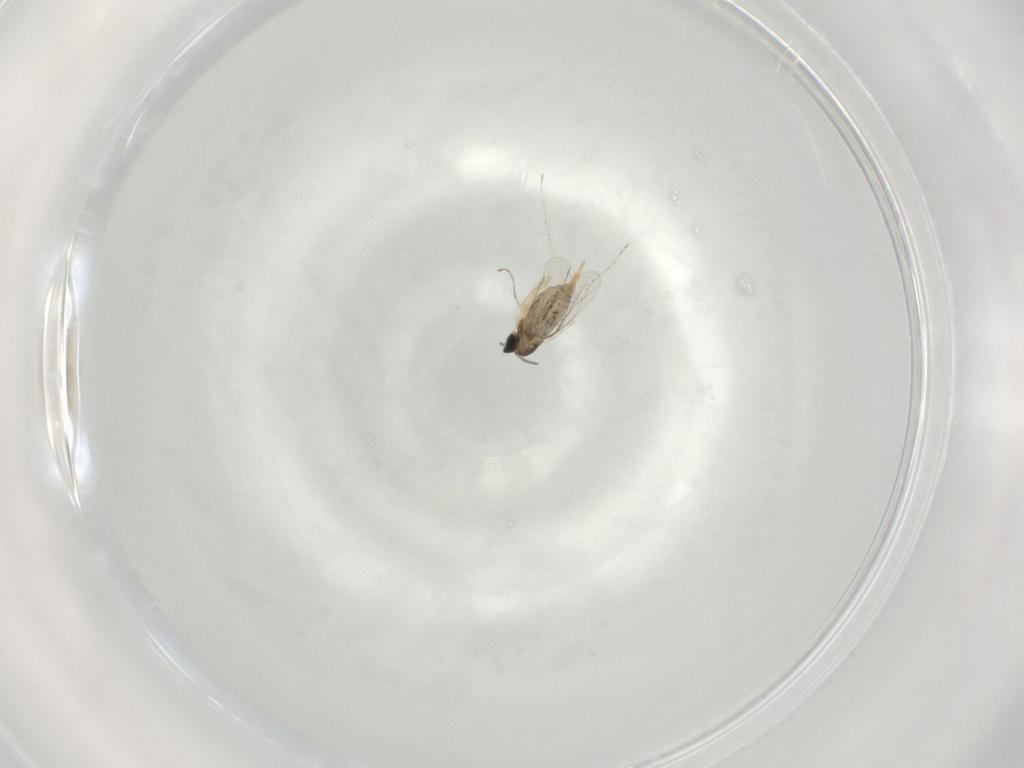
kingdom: Animalia
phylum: Arthropoda
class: Insecta
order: Diptera
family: Cecidomyiidae
